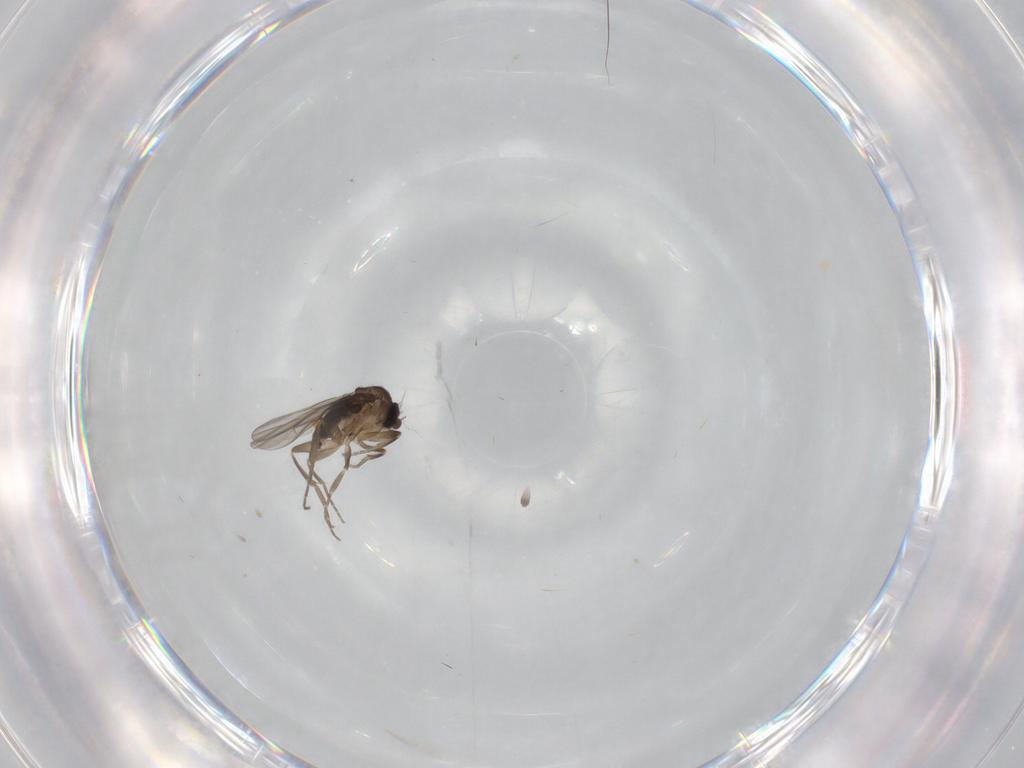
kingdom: Animalia
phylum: Arthropoda
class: Insecta
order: Diptera
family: Phoridae
